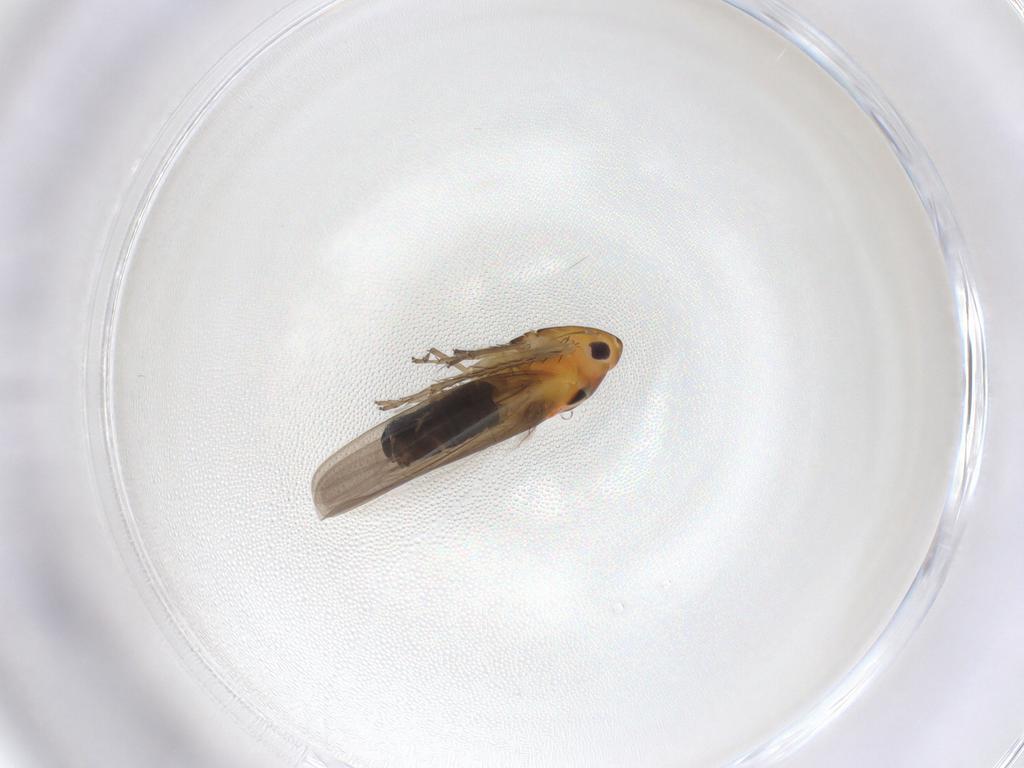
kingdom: Animalia
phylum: Arthropoda
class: Insecta
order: Hemiptera
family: Cicadellidae
